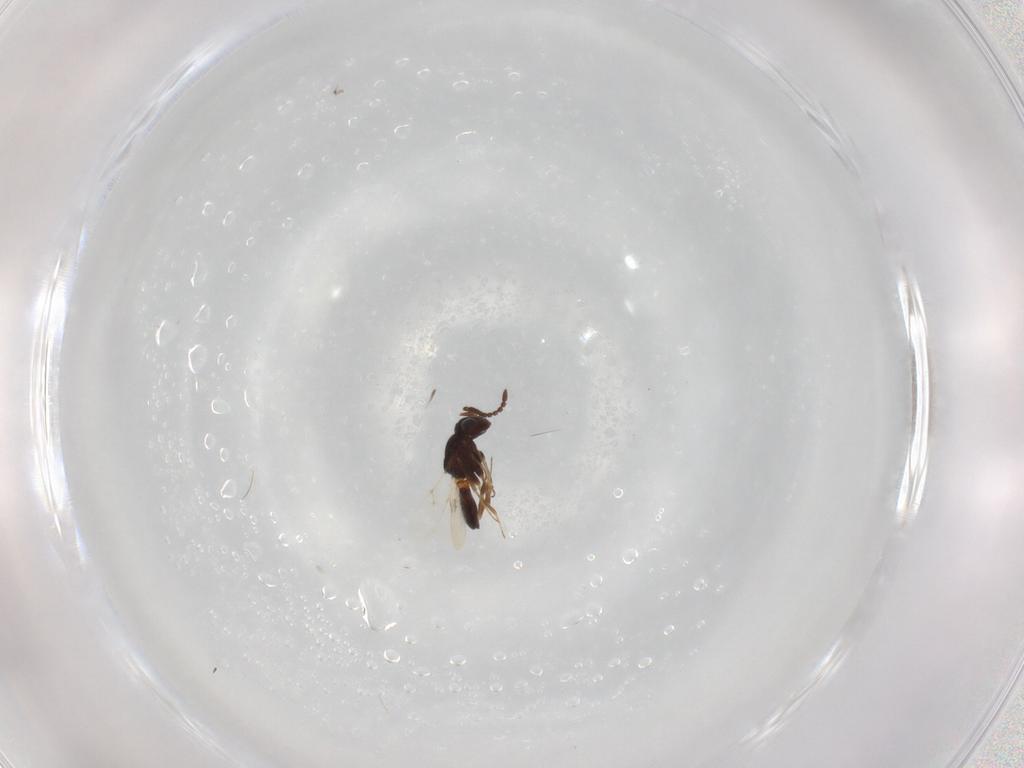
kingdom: Animalia
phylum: Arthropoda
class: Insecta
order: Hymenoptera
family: Scelionidae
